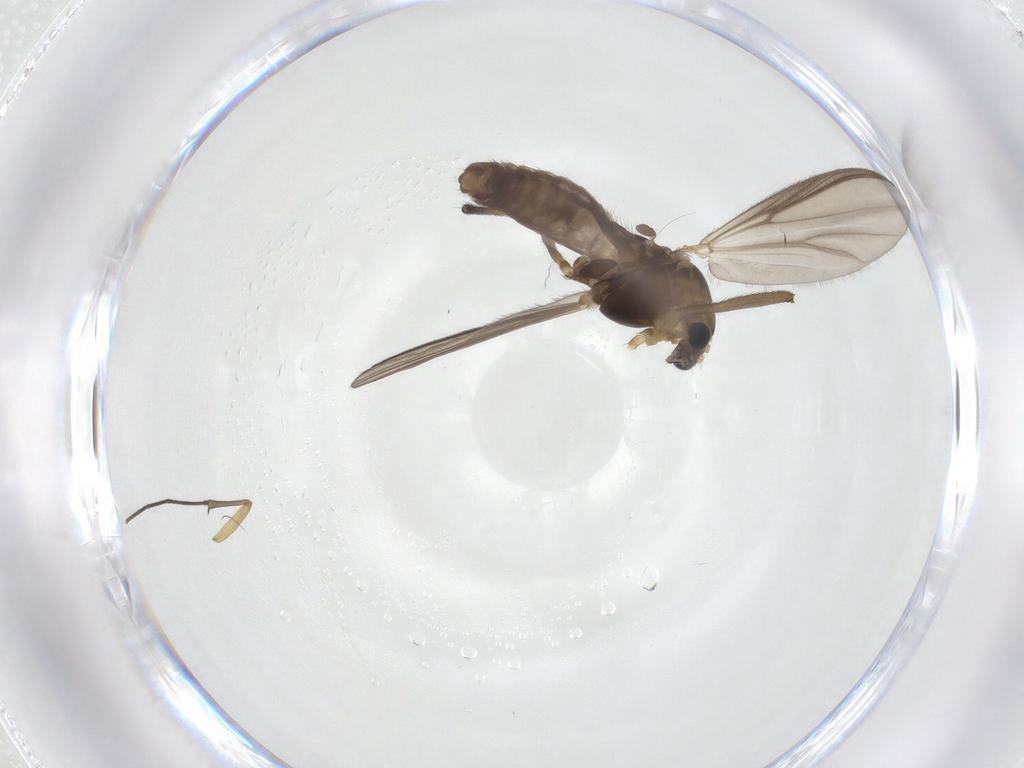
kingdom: Animalia
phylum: Arthropoda
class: Insecta
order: Diptera
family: Chironomidae
